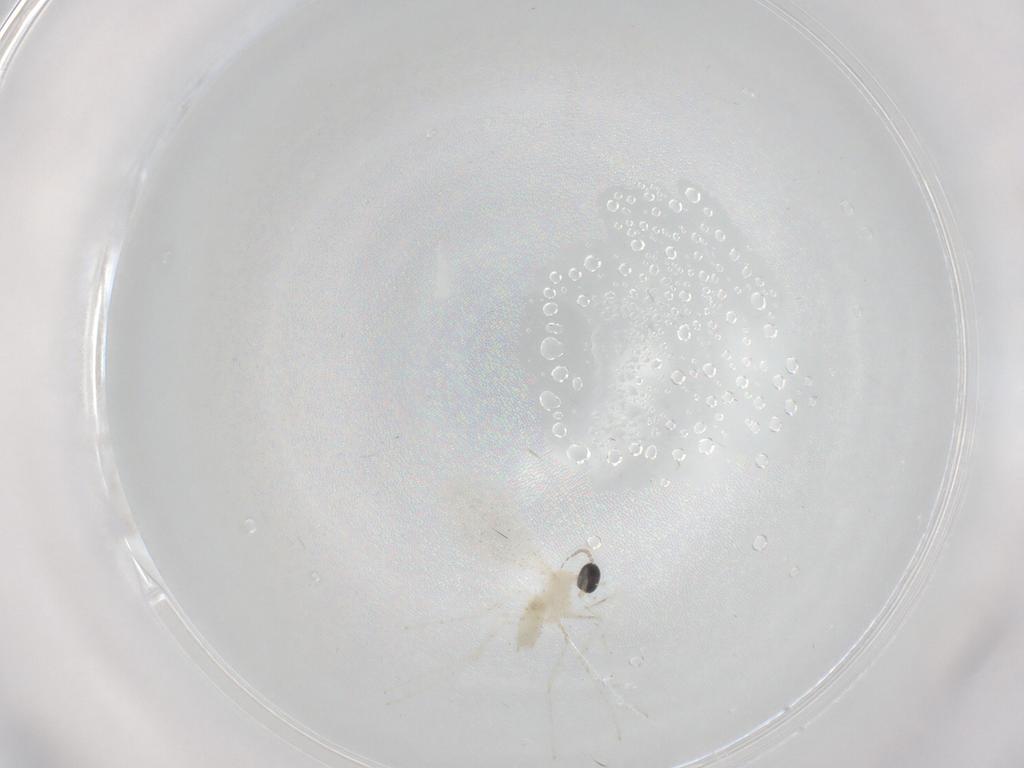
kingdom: Animalia
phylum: Arthropoda
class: Insecta
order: Diptera
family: Cecidomyiidae
